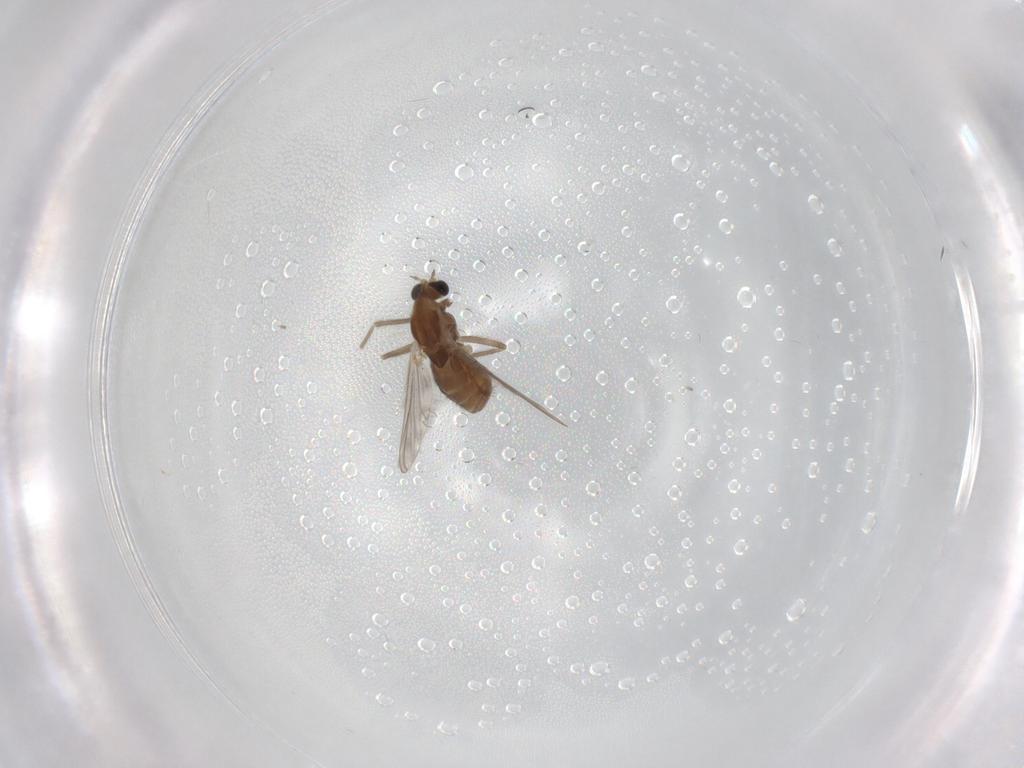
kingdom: Animalia
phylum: Arthropoda
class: Insecta
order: Diptera
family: Chironomidae
